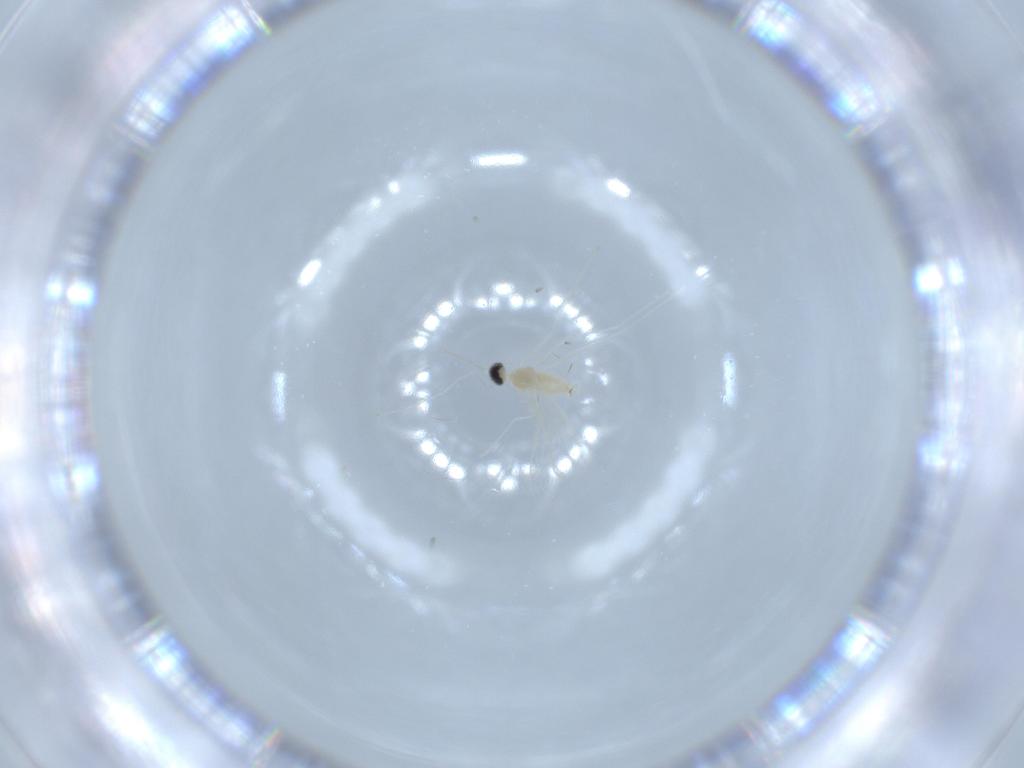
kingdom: Animalia
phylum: Arthropoda
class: Insecta
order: Diptera
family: Cecidomyiidae
